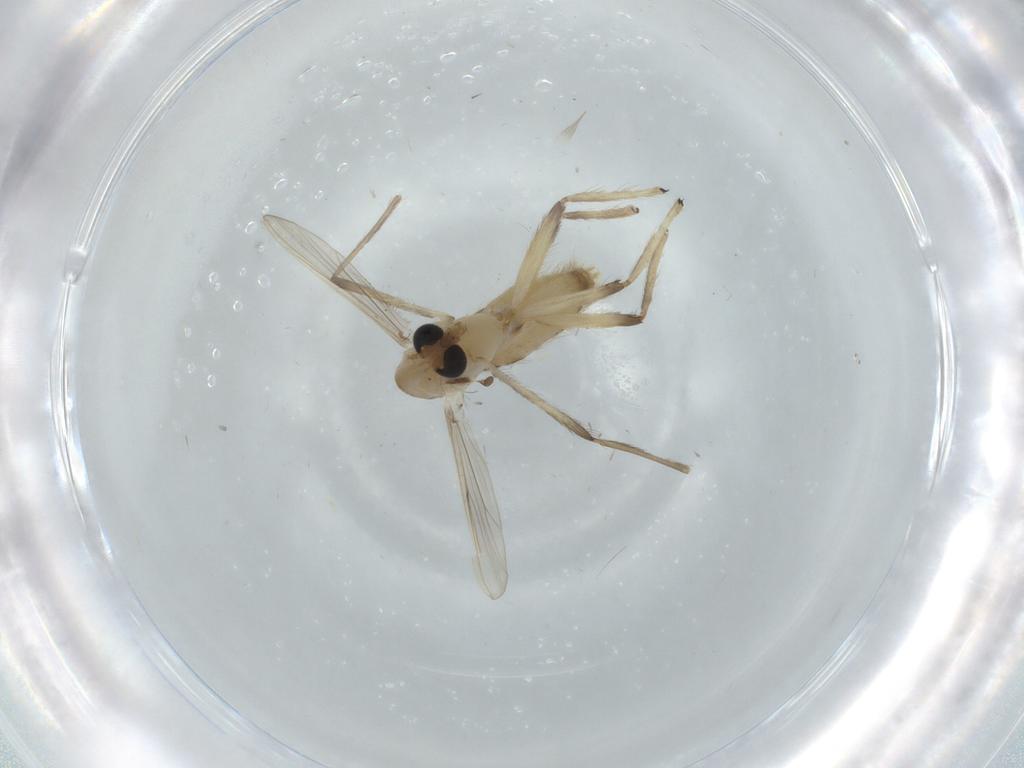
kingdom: Animalia
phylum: Arthropoda
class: Insecta
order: Diptera
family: Chironomidae
